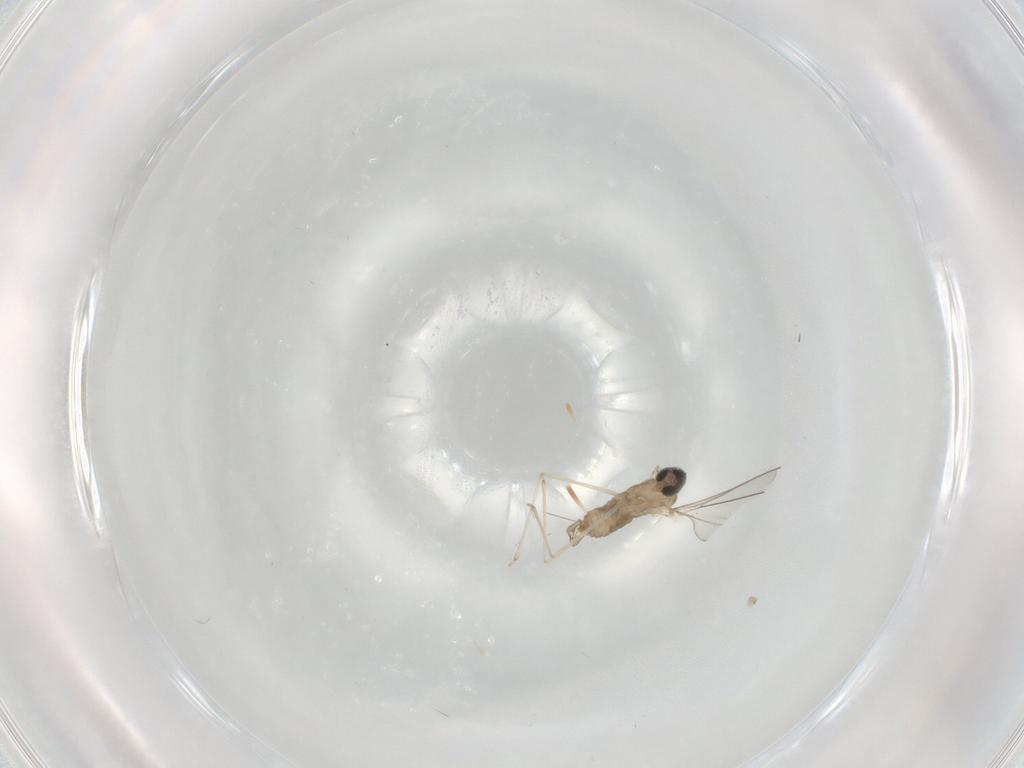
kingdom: Animalia
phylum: Arthropoda
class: Insecta
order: Diptera
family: Cecidomyiidae
